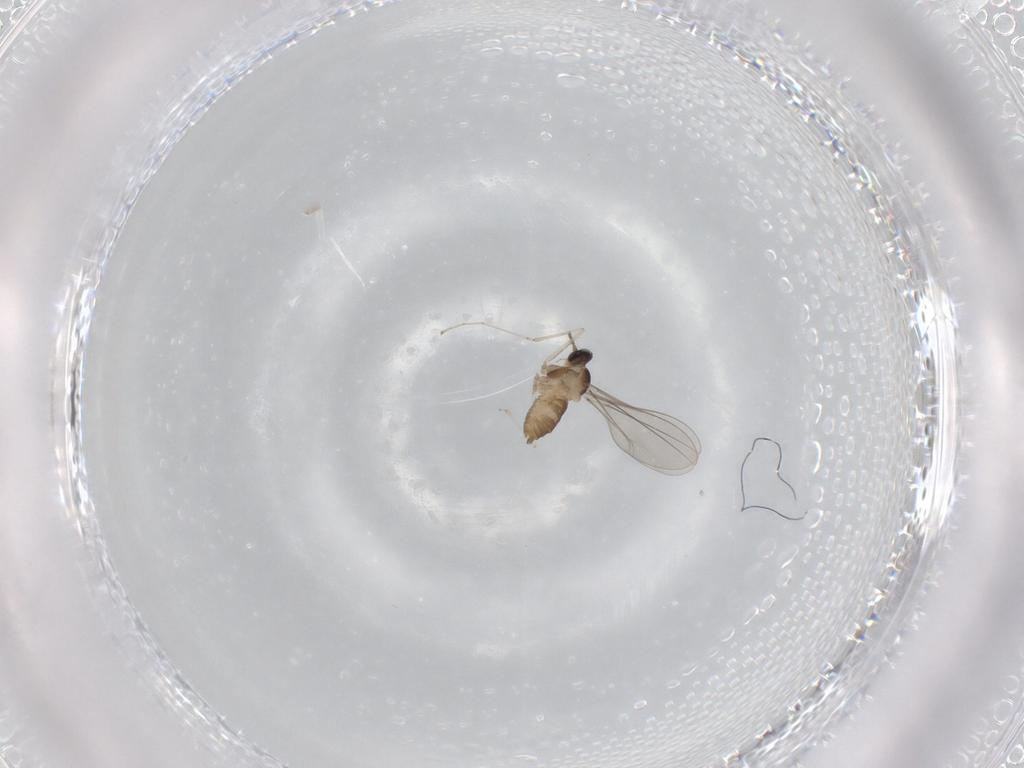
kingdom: Animalia
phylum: Arthropoda
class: Insecta
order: Diptera
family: Cecidomyiidae
